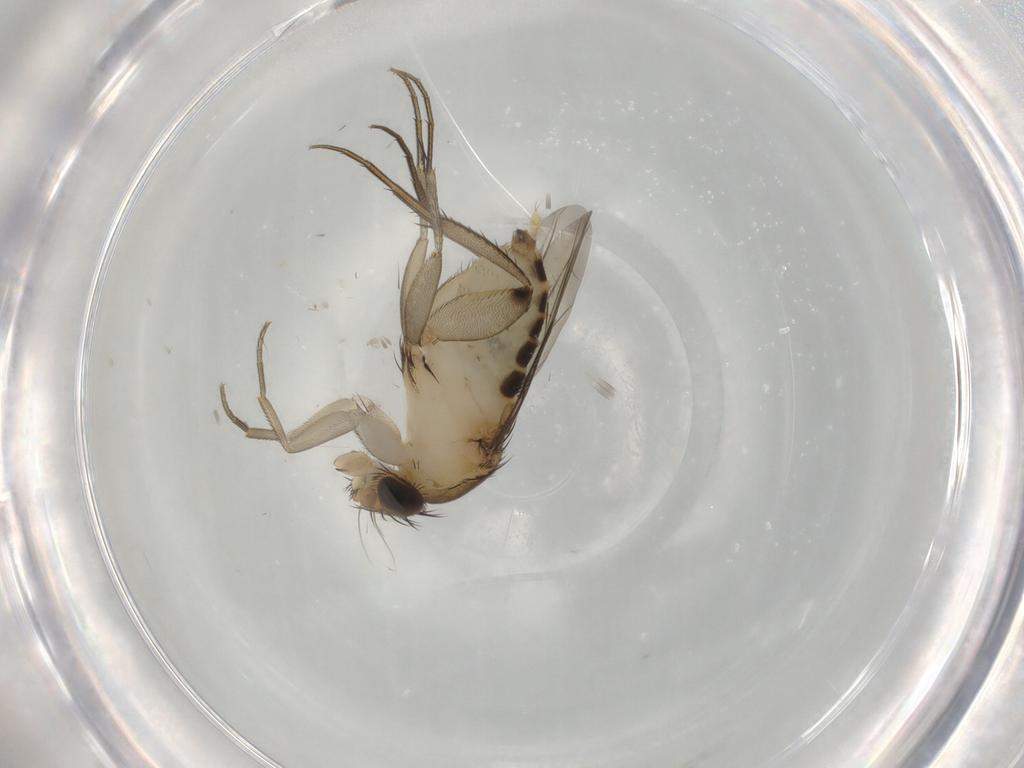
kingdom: Animalia
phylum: Arthropoda
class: Insecta
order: Diptera
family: Phoridae
